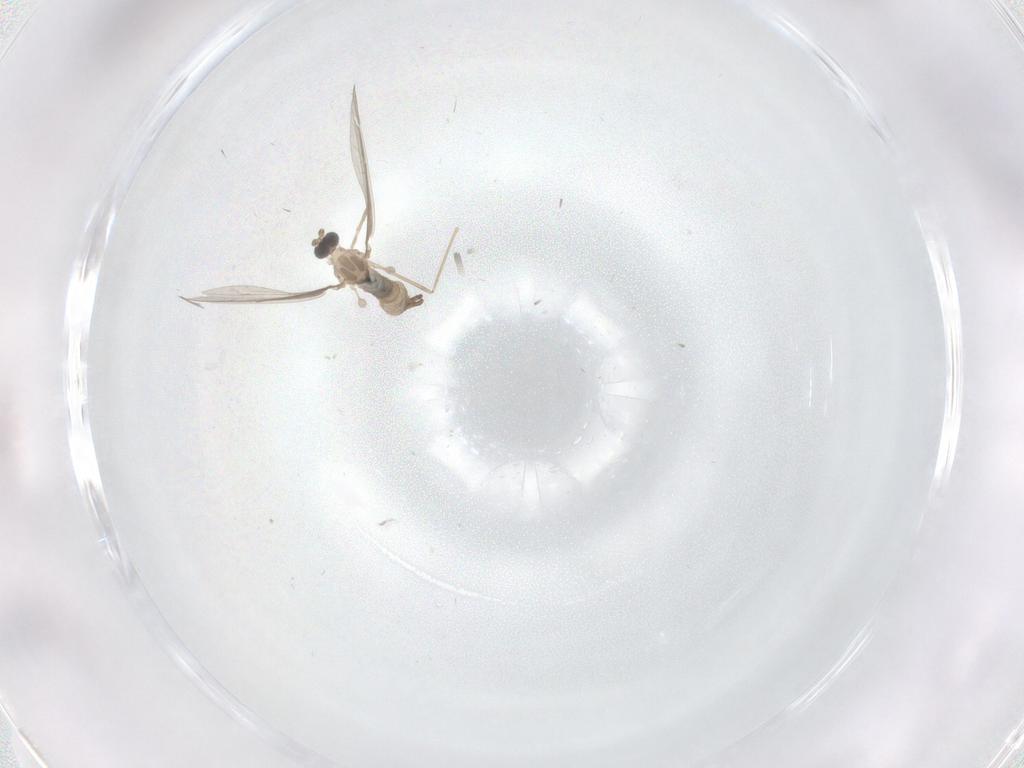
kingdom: Animalia
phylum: Arthropoda
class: Insecta
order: Diptera
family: Cecidomyiidae
